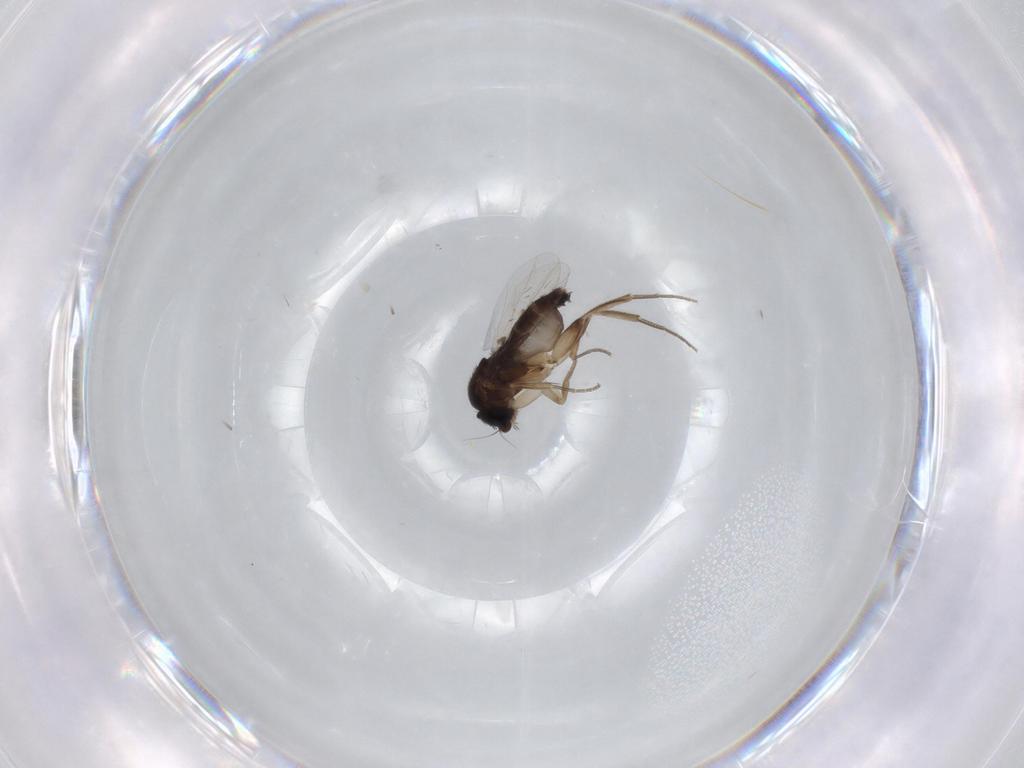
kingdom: Animalia
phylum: Arthropoda
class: Insecta
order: Diptera
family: Phoridae
